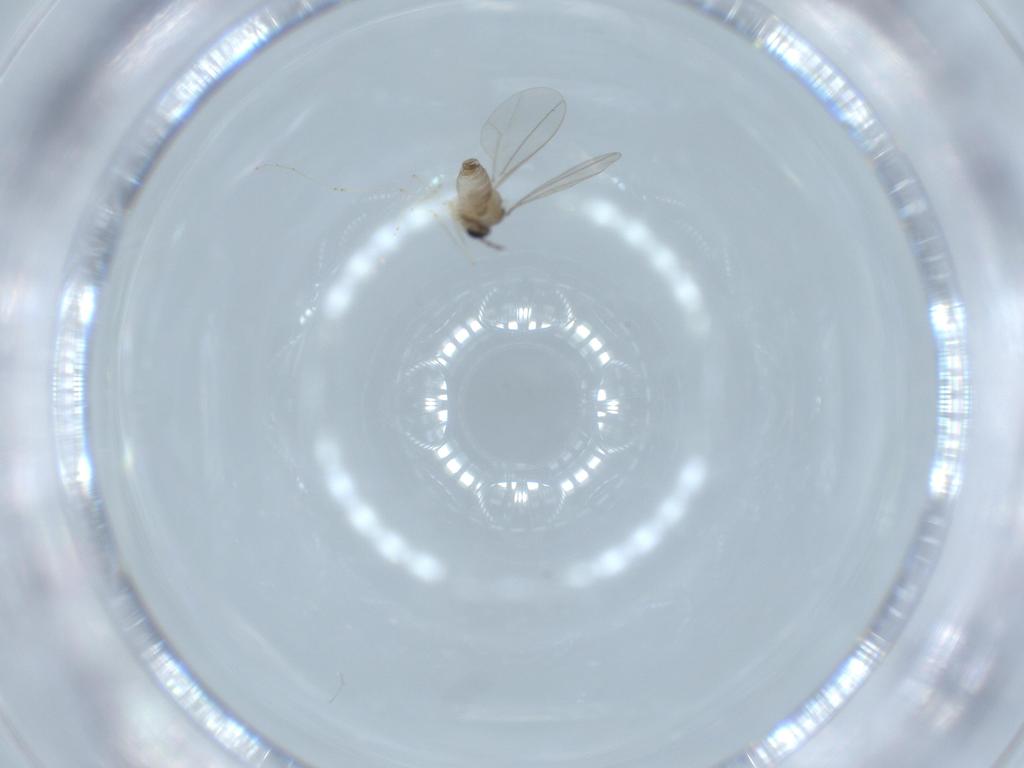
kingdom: Animalia
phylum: Arthropoda
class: Insecta
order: Diptera
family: Cecidomyiidae
